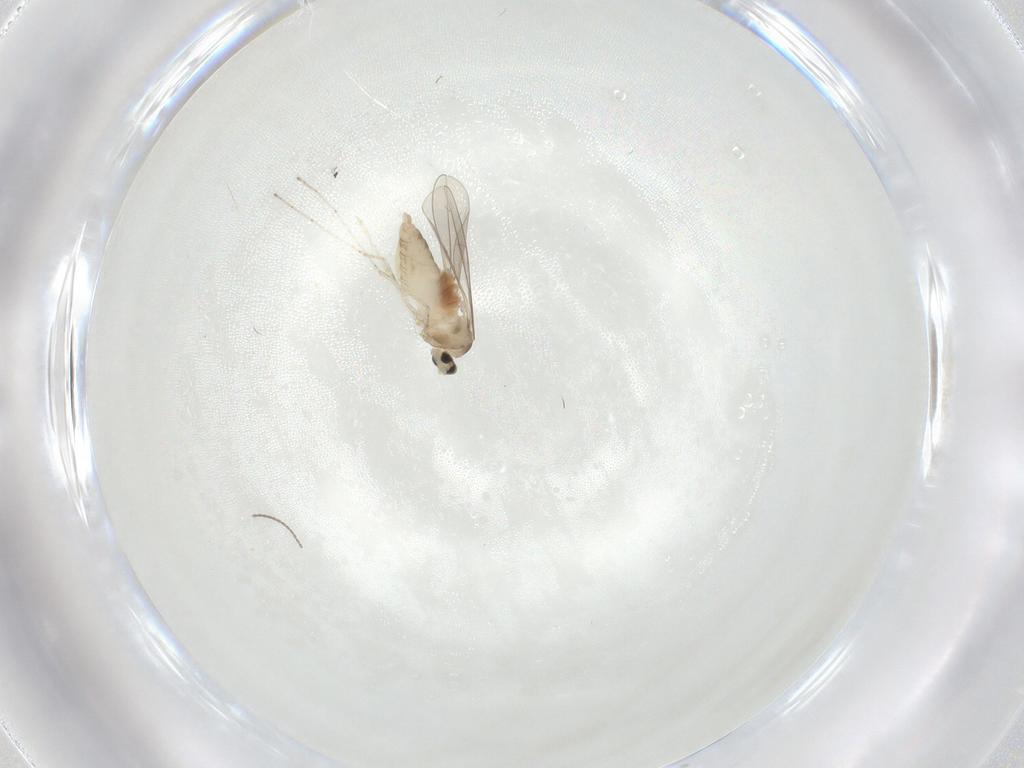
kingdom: Animalia
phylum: Arthropoda
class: Insecta
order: Diptera
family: Cecidomyiidae
